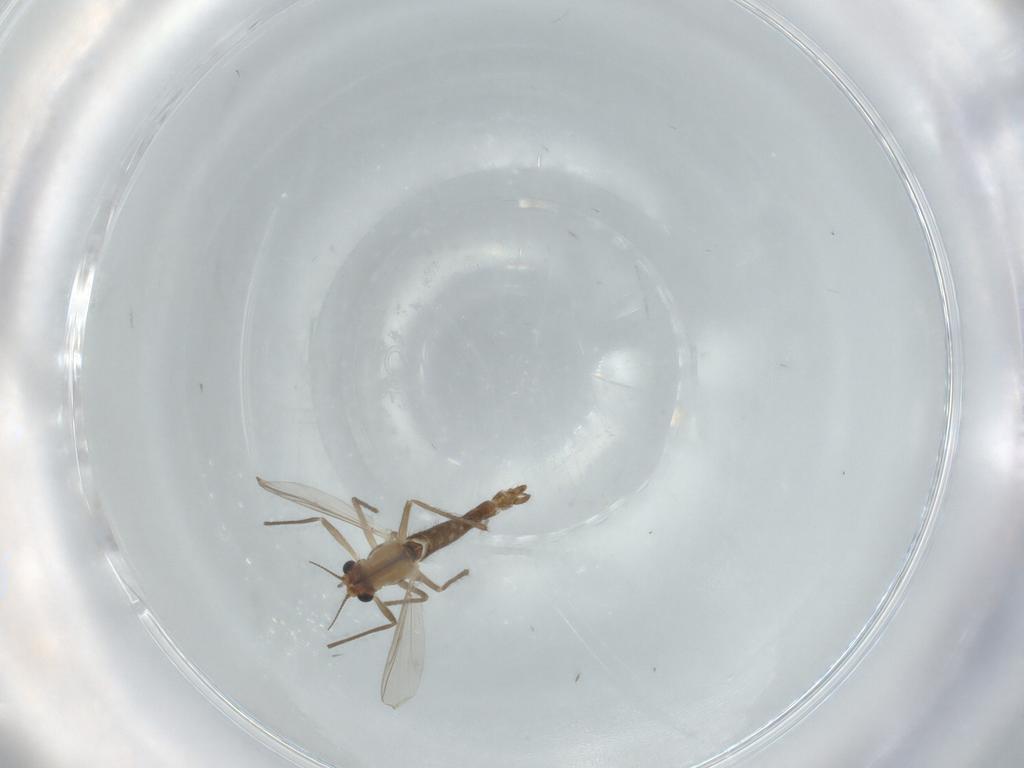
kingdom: Animalia
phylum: Arthropoda
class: Insecta
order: Diptera
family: Chironomidae
